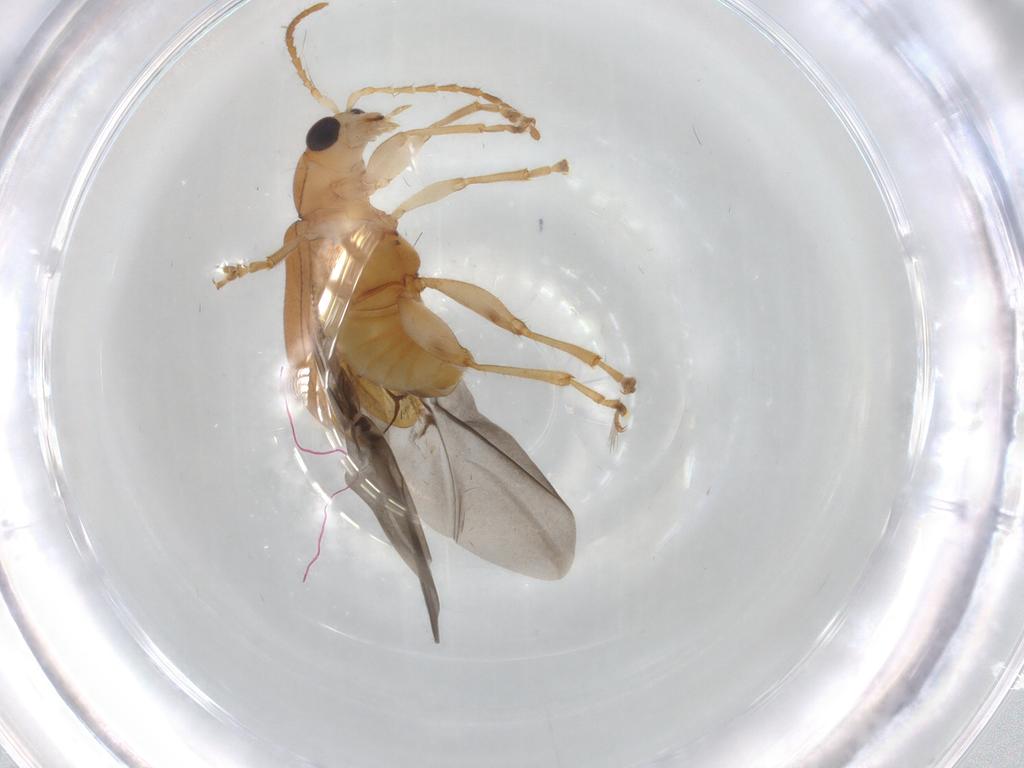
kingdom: Animalia
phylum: Arthropoda
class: Insecta
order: Coleoptera
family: Chrysomelidae
